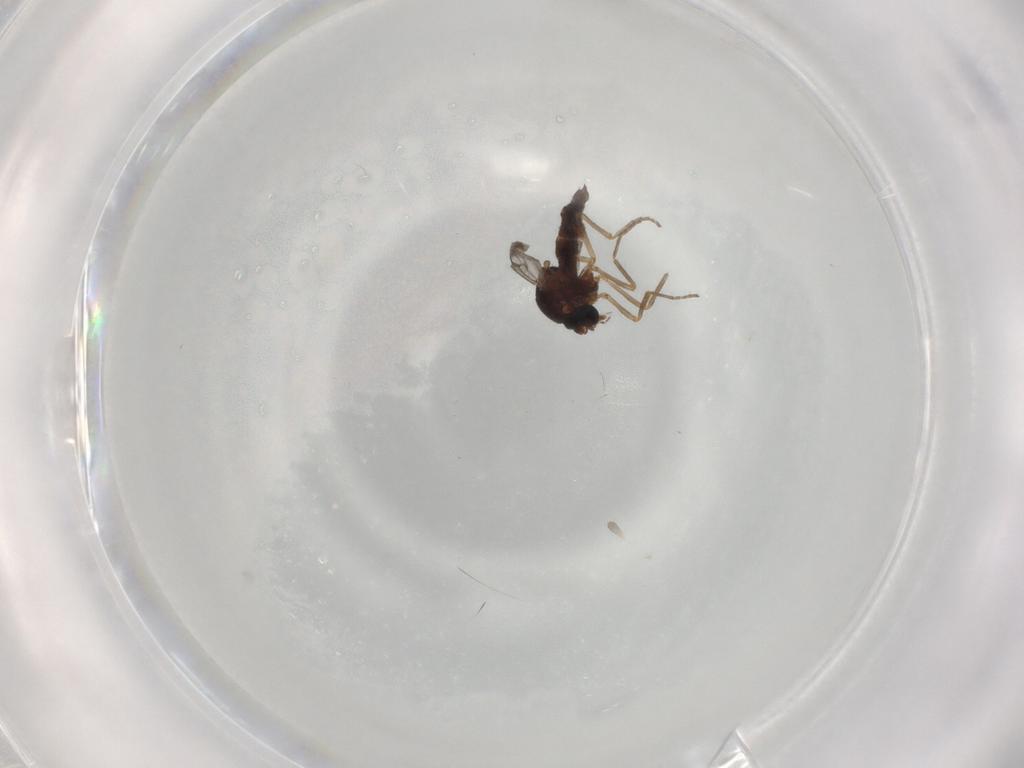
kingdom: Animalia
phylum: Arthropoda
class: Insecta
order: Diptera
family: Ceratopogonidae
